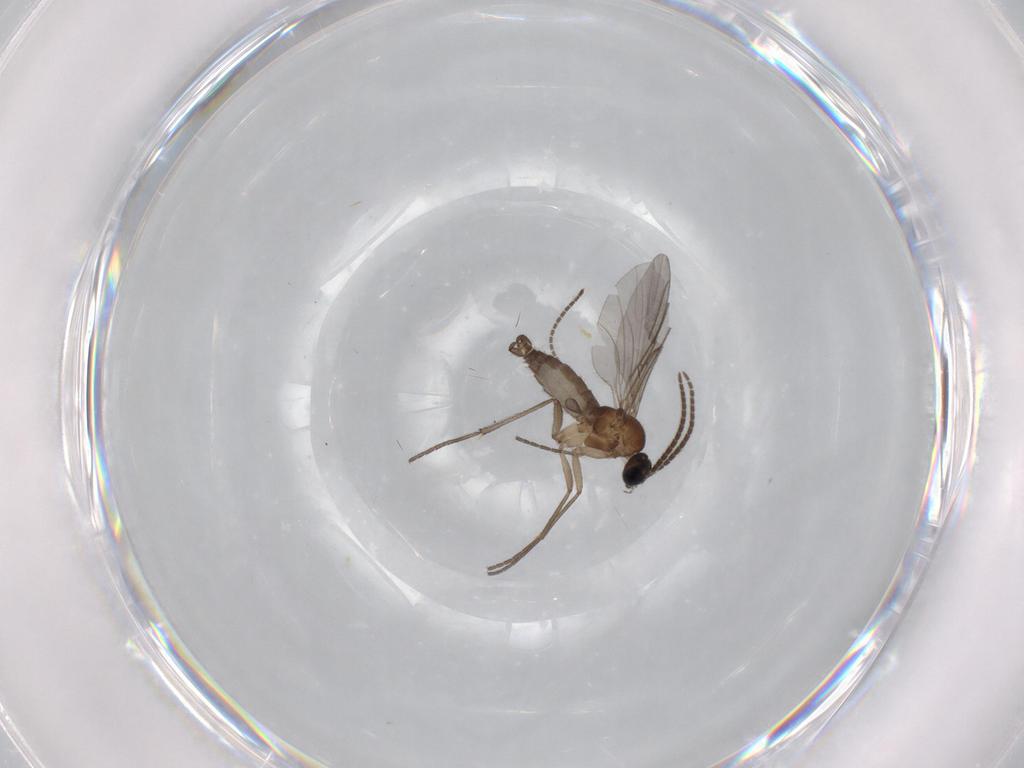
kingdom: Animalia
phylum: Arthropoda
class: Insecta
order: Diptera
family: Sciaridae
